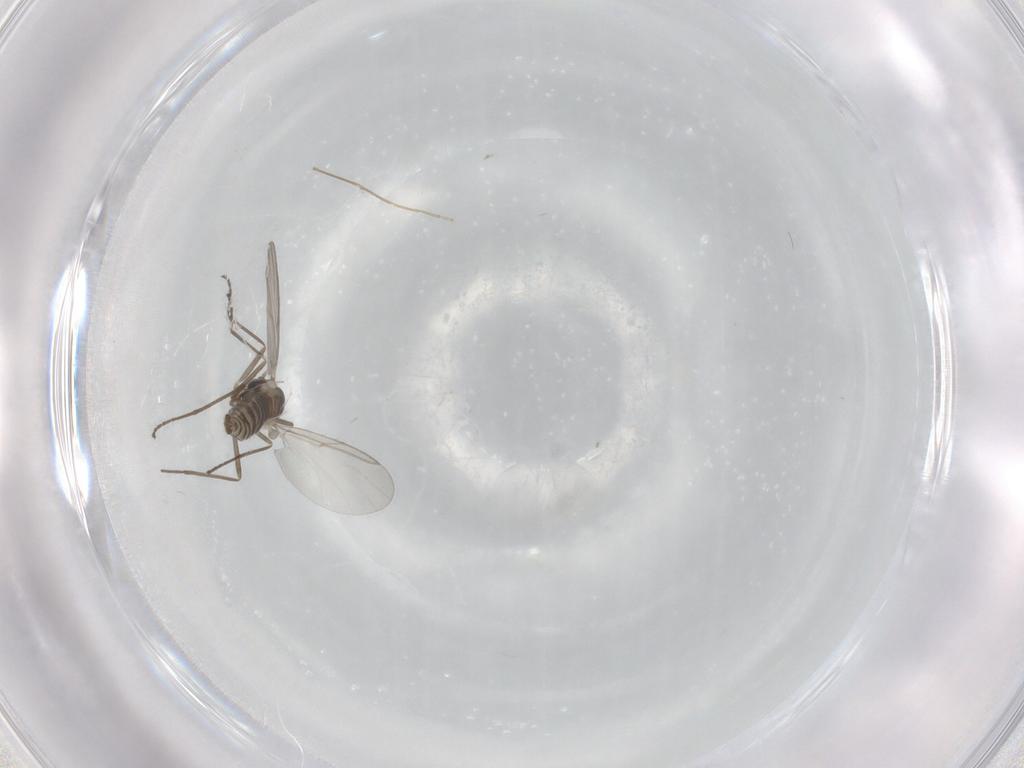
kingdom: Animalia
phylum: Arthropoda
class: Insecta
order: Diptera
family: Cecidomyiidae
